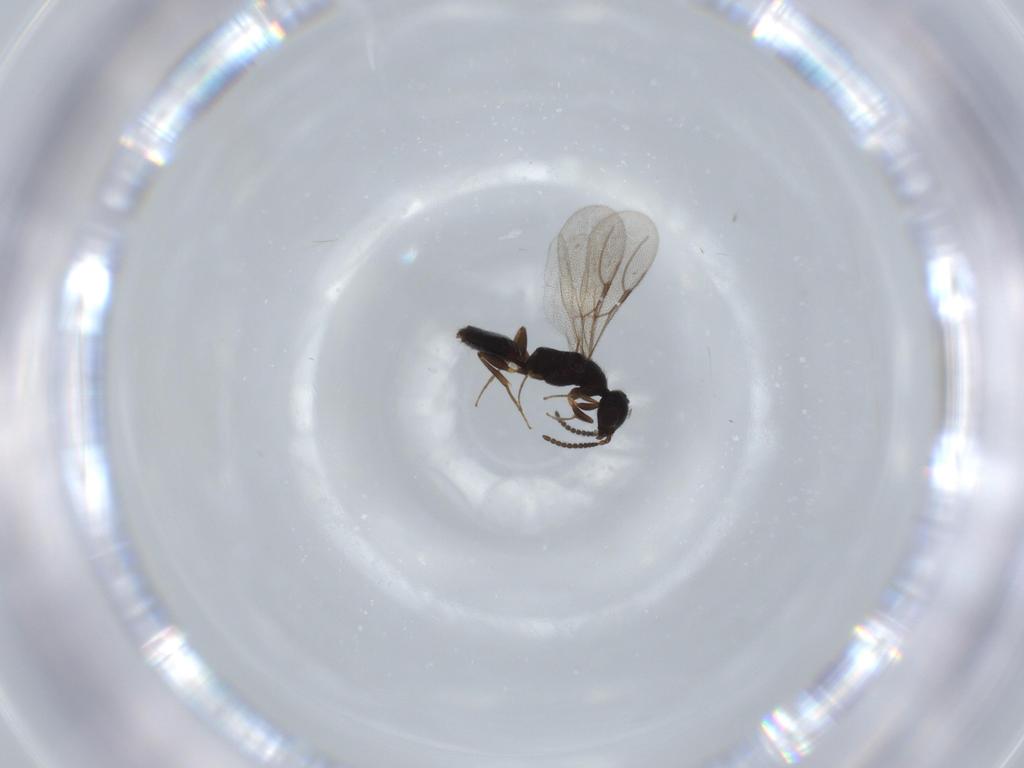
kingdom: Animalia
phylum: Arthropoda
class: Insecta
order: Hymenoptera
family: Bethylidae
